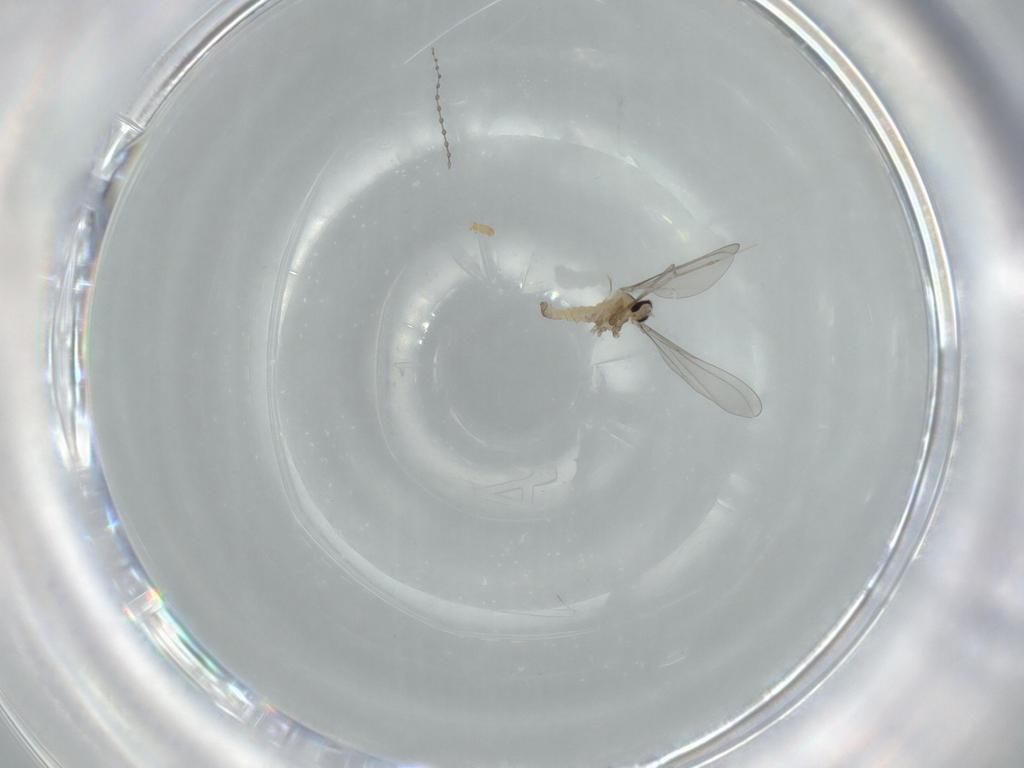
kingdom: Animalia
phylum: Arthropoda
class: Insecta
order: Diptera
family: Cecidomyiidae
